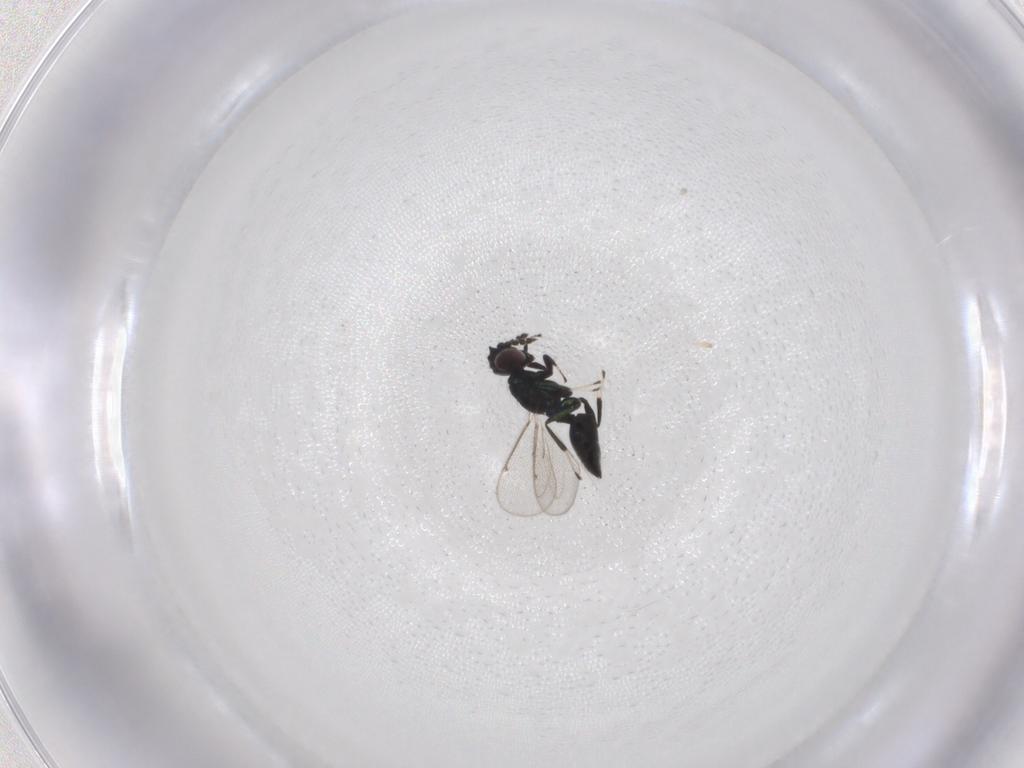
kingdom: Animalia
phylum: Arthropoda
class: Insecta
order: Hymenoptera
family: Eulophidae
